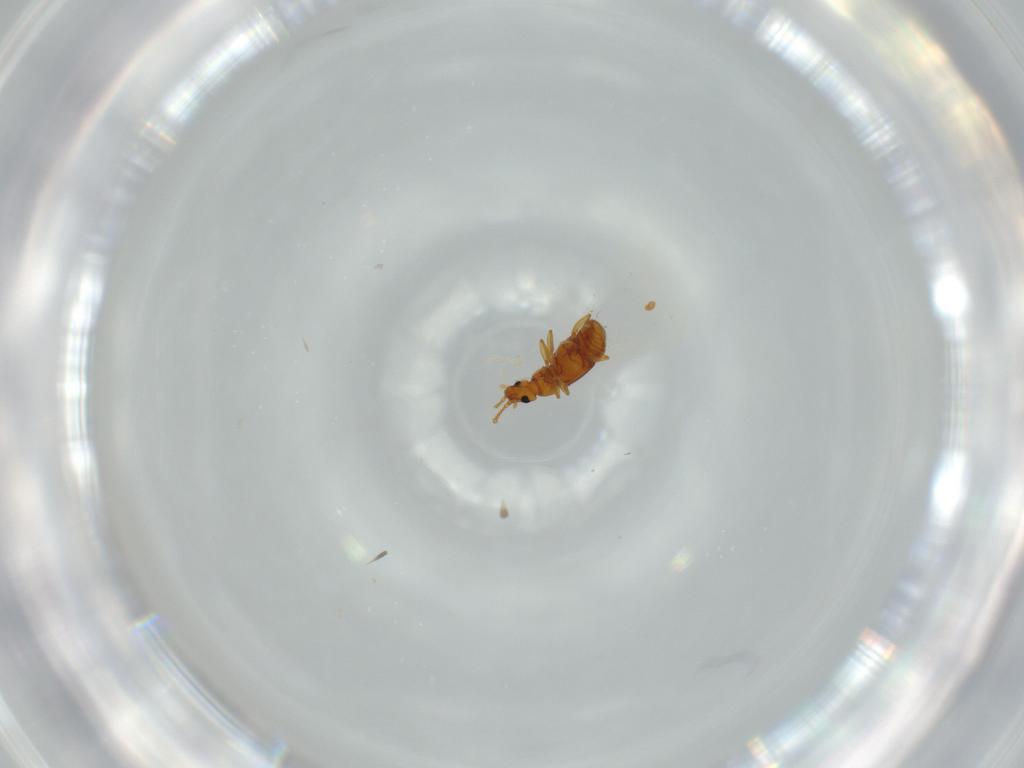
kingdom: Animalia
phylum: Arthropoda
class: Insecta
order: Coleoptera
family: Staphylinidae
